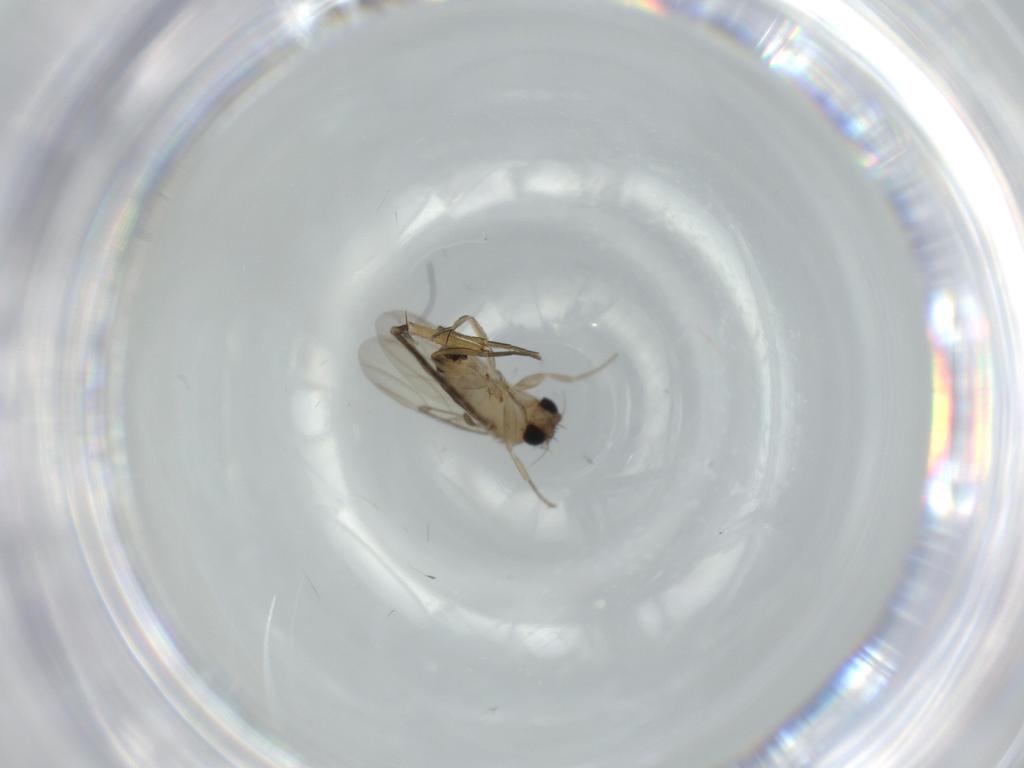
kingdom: Animalia
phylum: Arthropoda
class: Insecta
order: Diptera
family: Phoridae
